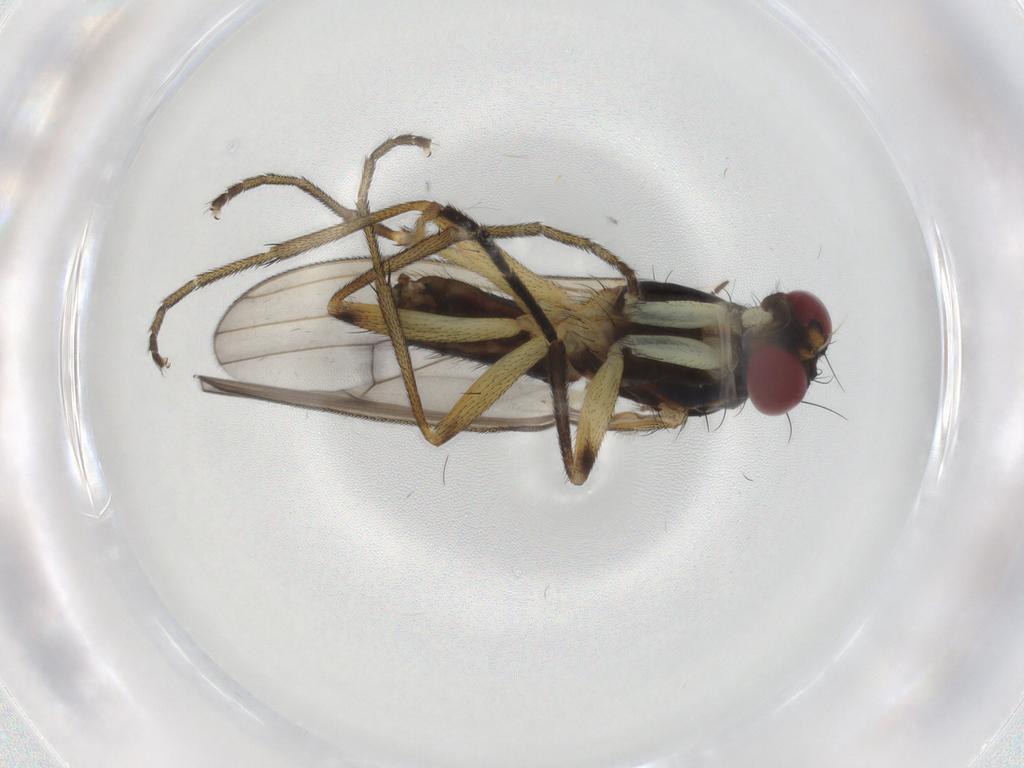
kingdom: Animalia
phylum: Arthropoda
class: Insecta
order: Diptera
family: Sciomyzidae
